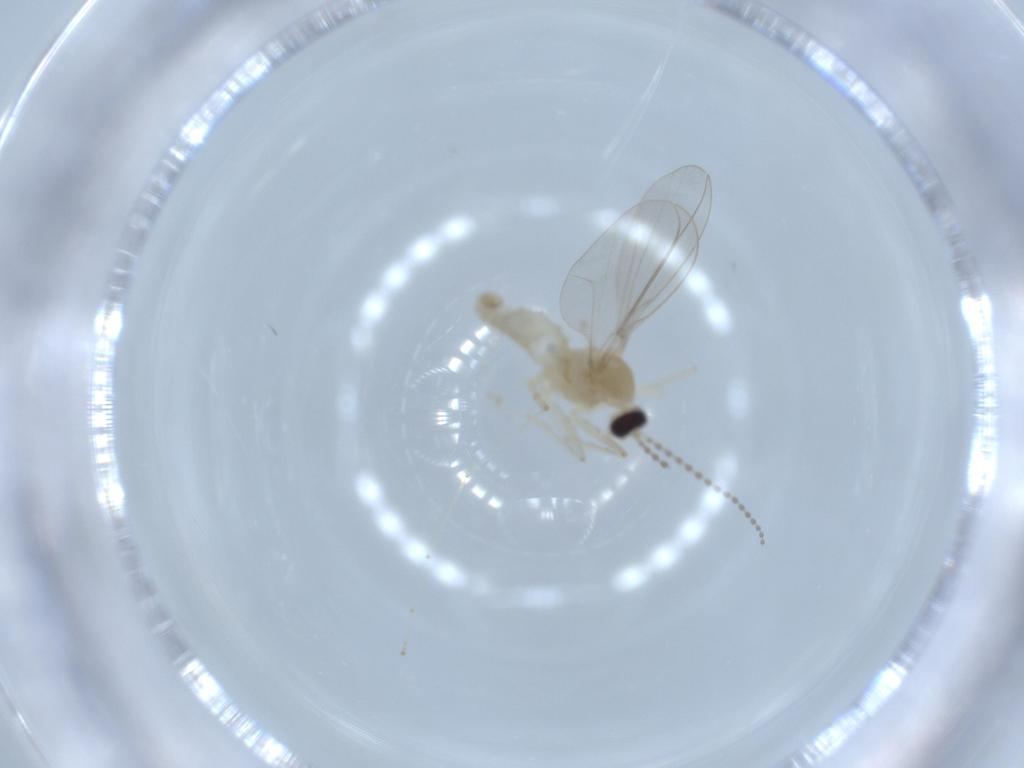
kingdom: Animalia
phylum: Arthropoda
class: Insecta
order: Diptera
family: Cecidomyiidae
